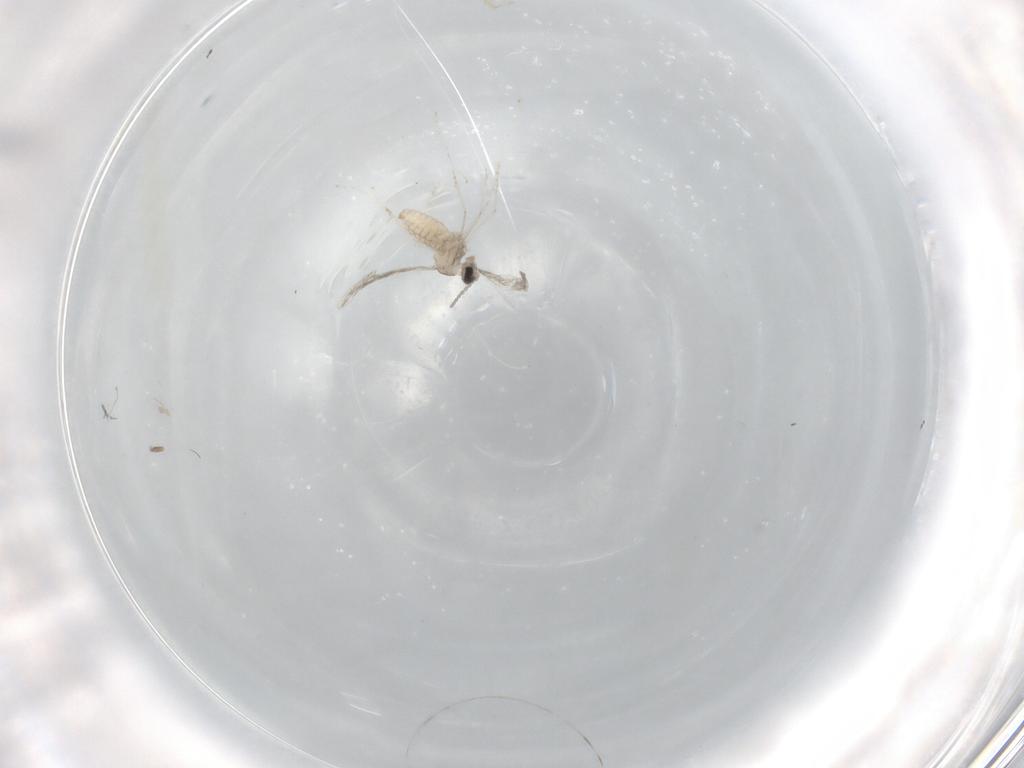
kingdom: Animalia
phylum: Arthropoda
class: Insecta
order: Diptera
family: Cecidomyiidae
